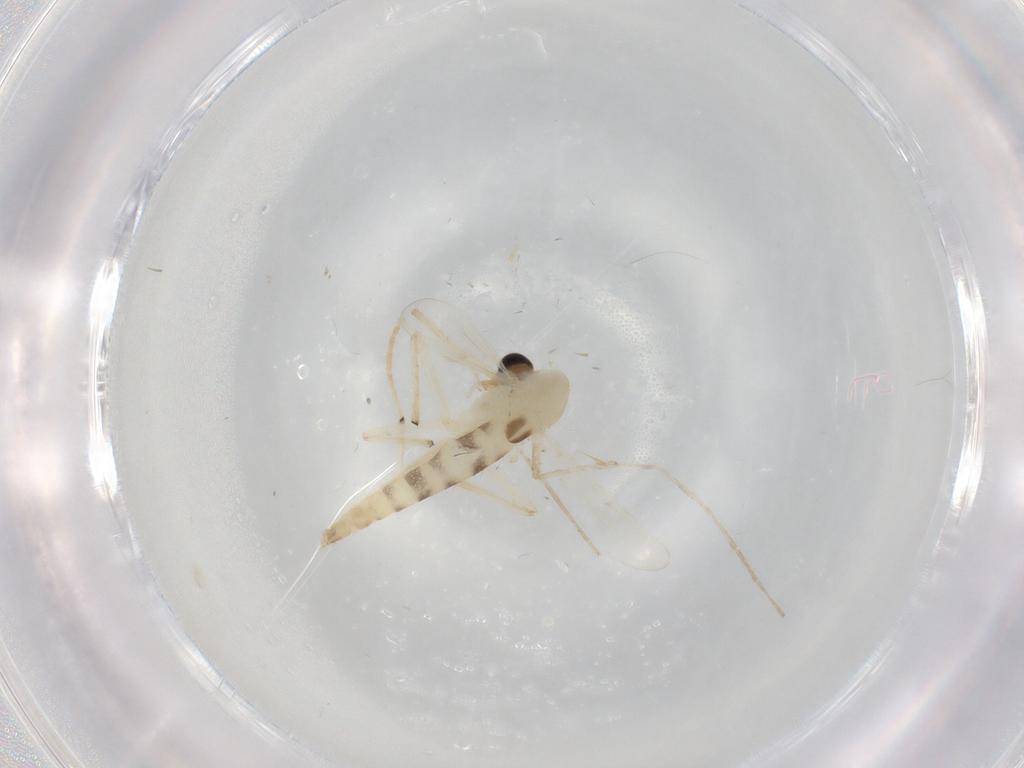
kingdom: Animalia
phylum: Arthropoda
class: Insecta
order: Diptera
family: Chironomidae
